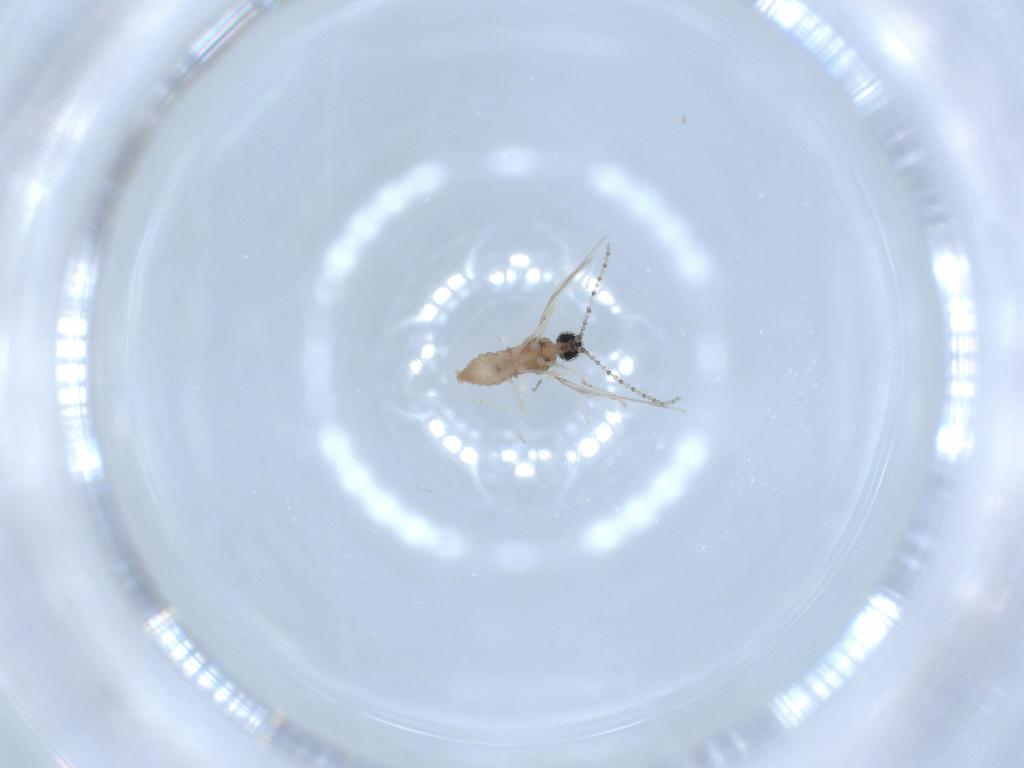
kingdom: Animalia
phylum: Arthropoda
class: Insecta
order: Diptera
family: Cecidomyiidae
